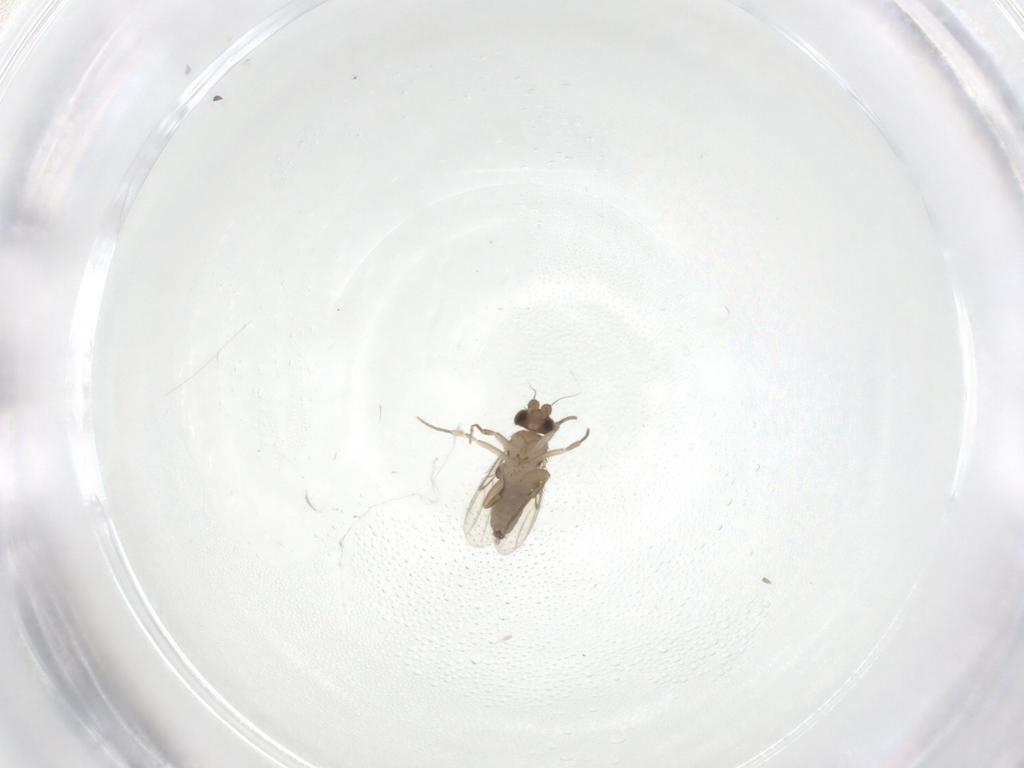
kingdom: Animalia
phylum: Arthropoda
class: Insecta
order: Diptera
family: Phoridae
